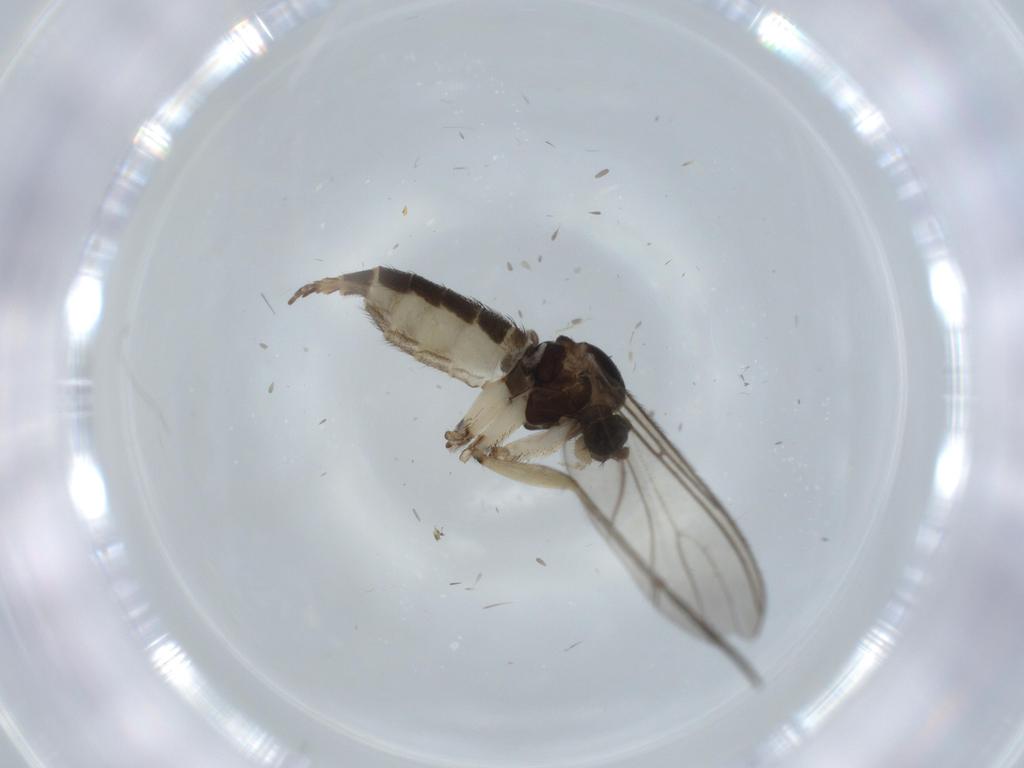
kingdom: Animalia
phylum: Arthropoda
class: Insecta
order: Diptera
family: Sciaridae
